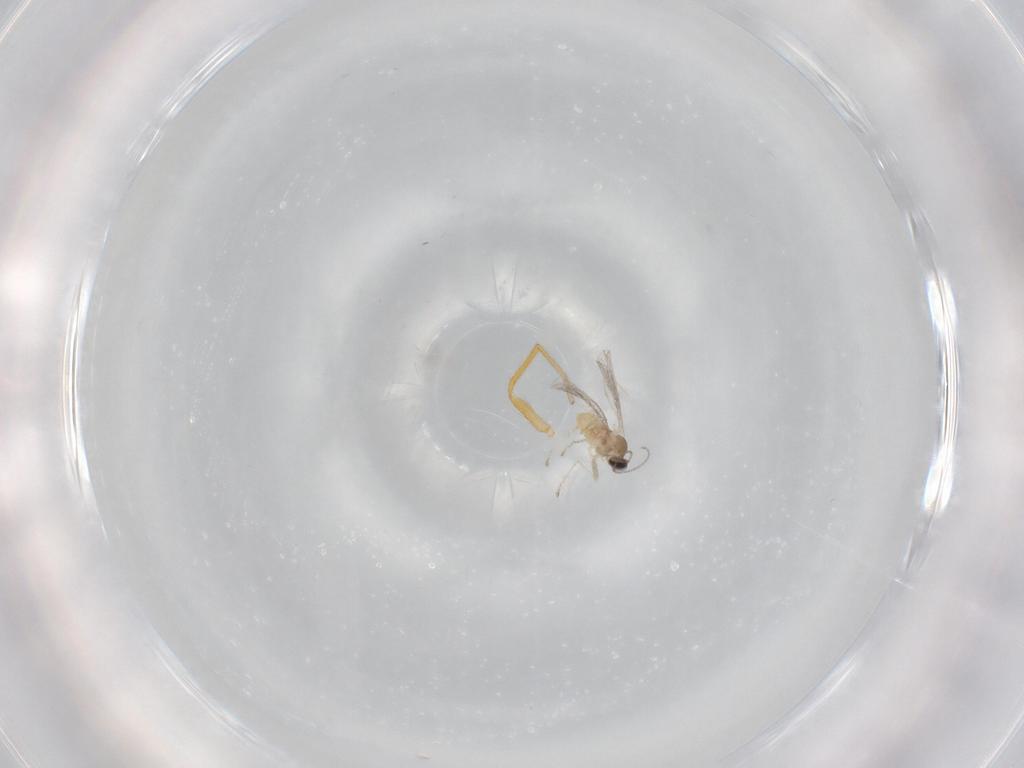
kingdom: Animalia
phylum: Arthropoda
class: Insecta
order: Diptera
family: Cecidomyiidae
